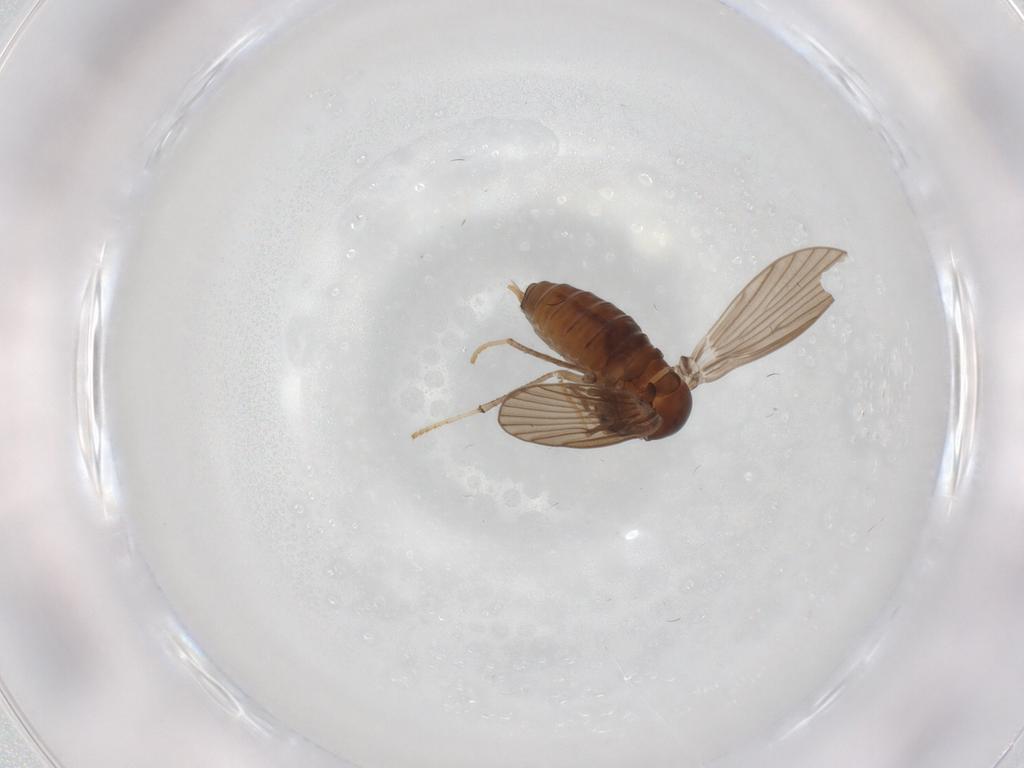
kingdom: Animalia
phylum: Arthropoda
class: Insecta
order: Diptera
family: Psychodidae
